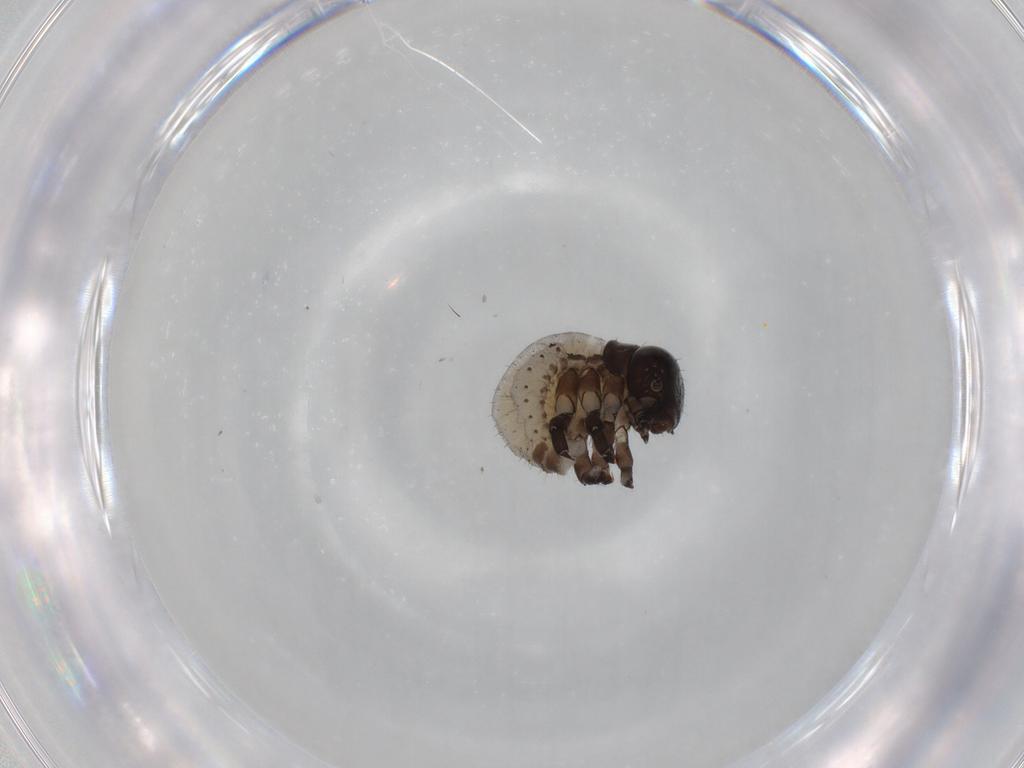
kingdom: Animalia
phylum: Arthropoda
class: Insecta
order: Coleoptera
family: Chrysomelidae
